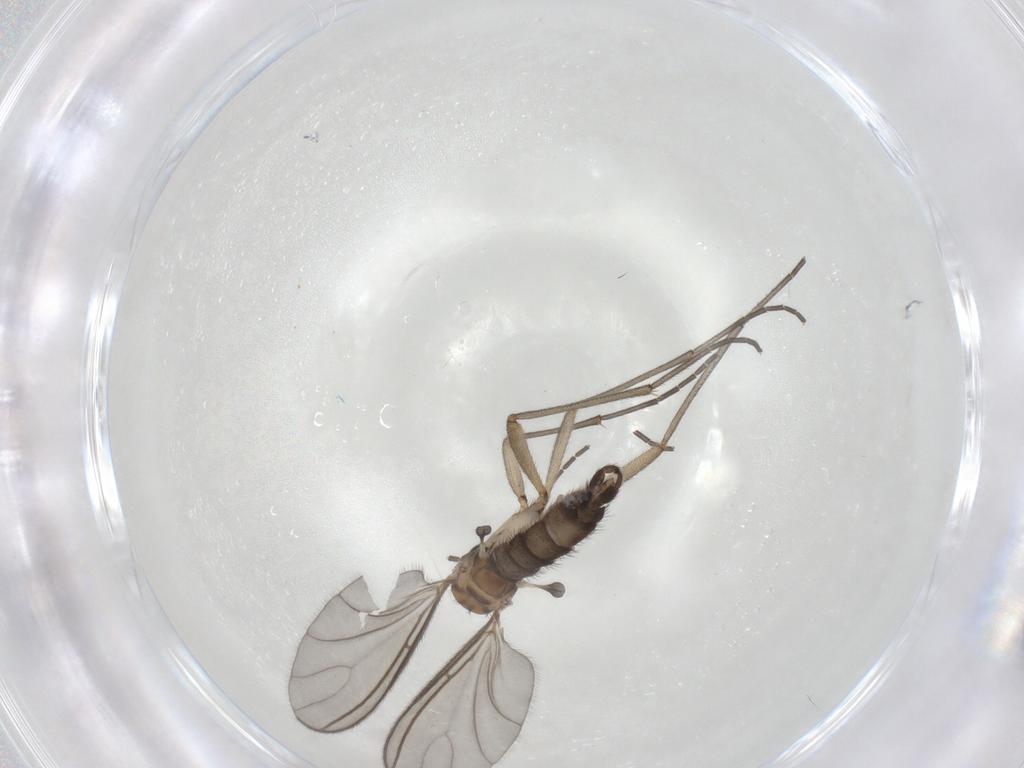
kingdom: Animalia
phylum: Arthropoda
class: Insecta
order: Diptera
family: Sciaridae
